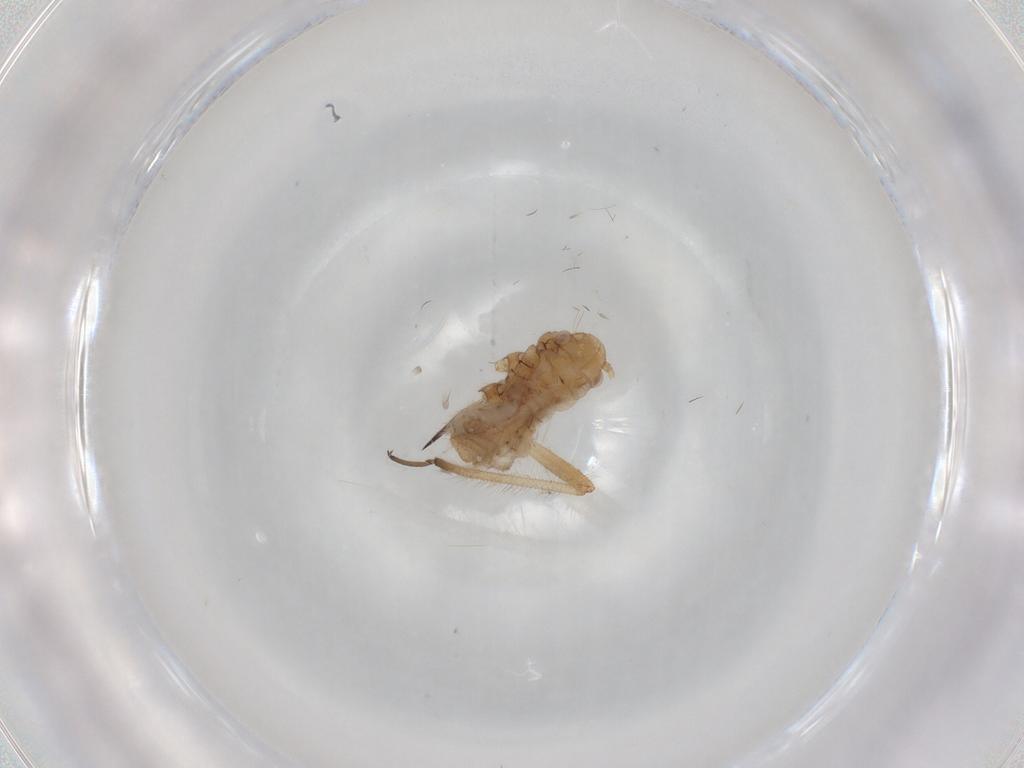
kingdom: Animalia
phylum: Arthropoda
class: Insecta
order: Hemiptera
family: Aphididae
